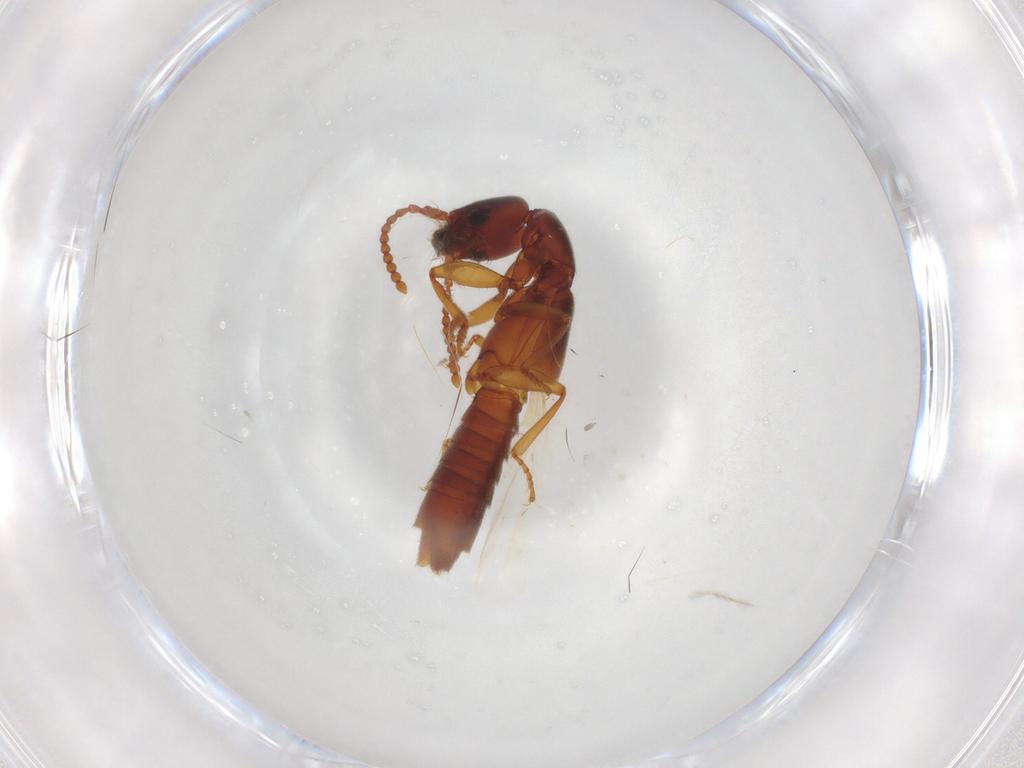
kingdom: Animalia
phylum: Arthropoda
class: Insecta
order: Coleoptera
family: Staphylinidae
